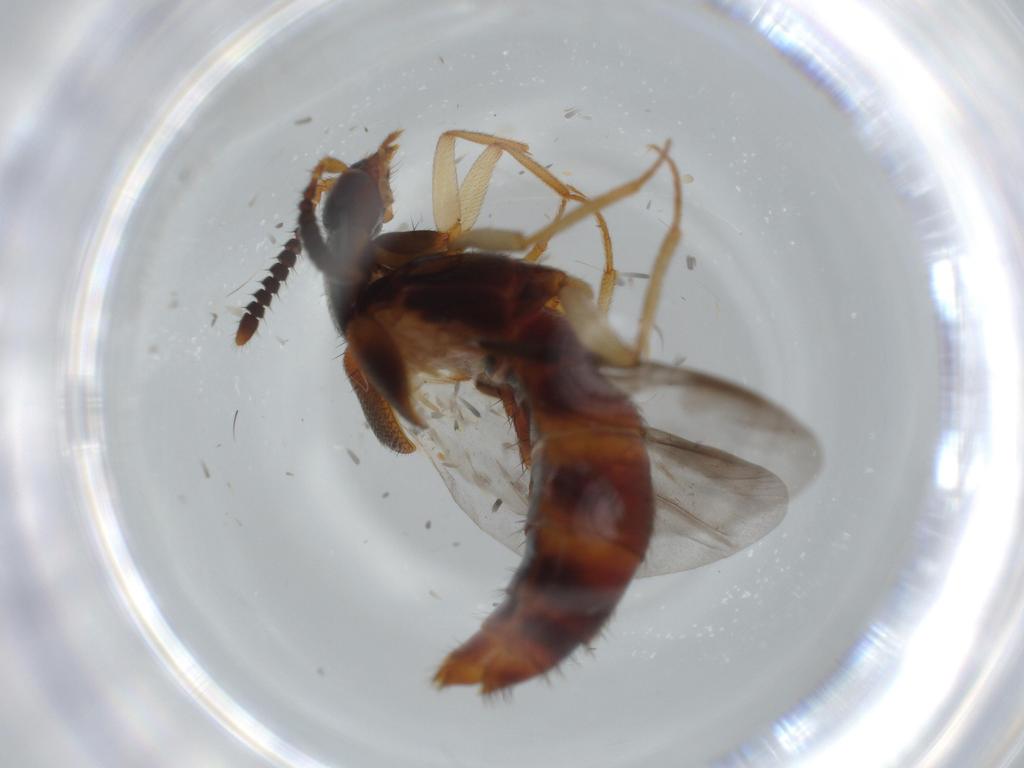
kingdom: Animalia
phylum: Arthropoda
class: Insecta
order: Coleoptera
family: Staphylinidae
